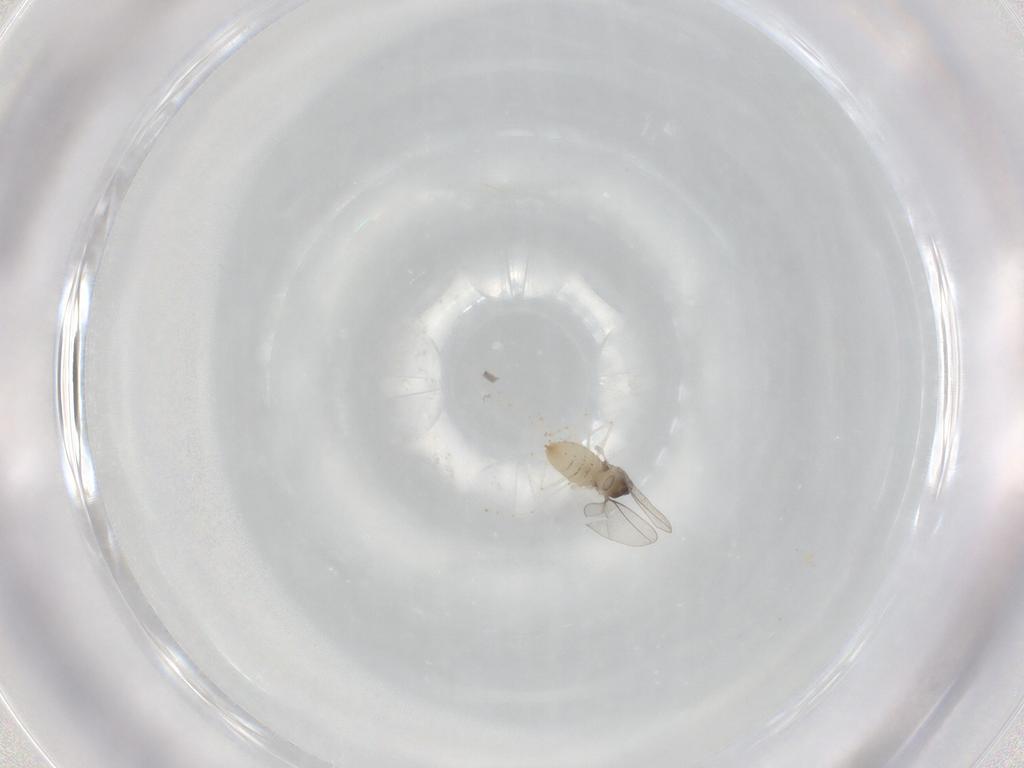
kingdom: Animalia
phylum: Arthropoda
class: Insecta
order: Diptera
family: Cecidomyiidae
